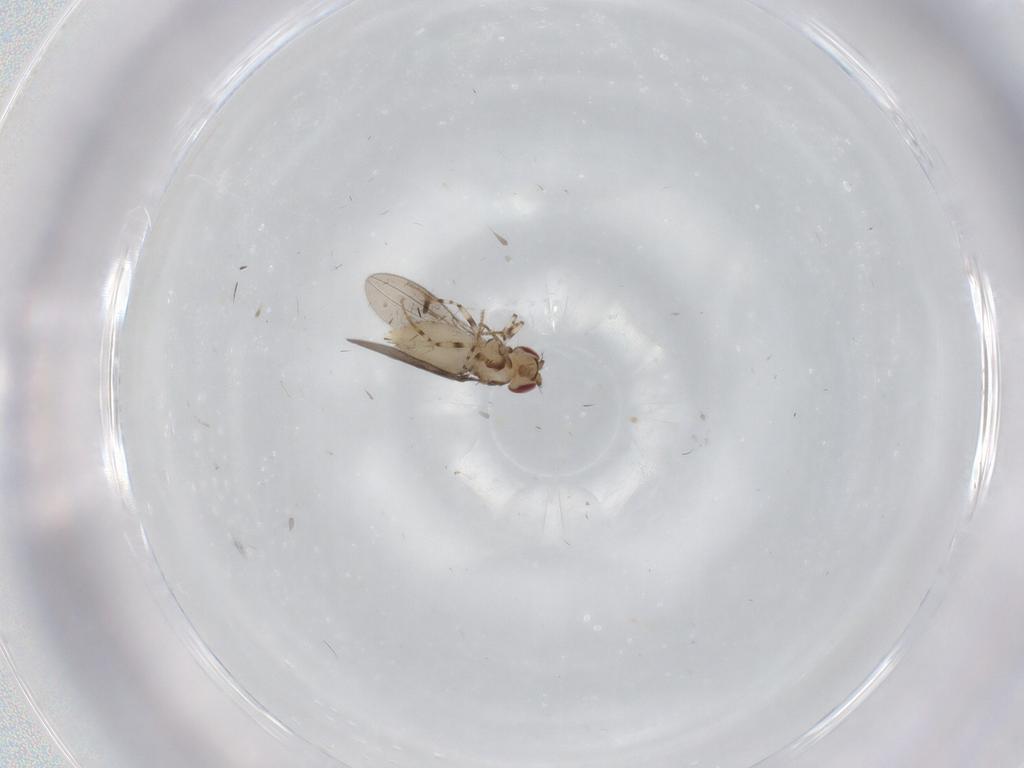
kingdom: Animalia
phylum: Arthropoda
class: Insecta
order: Diptera
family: Asteiidae
